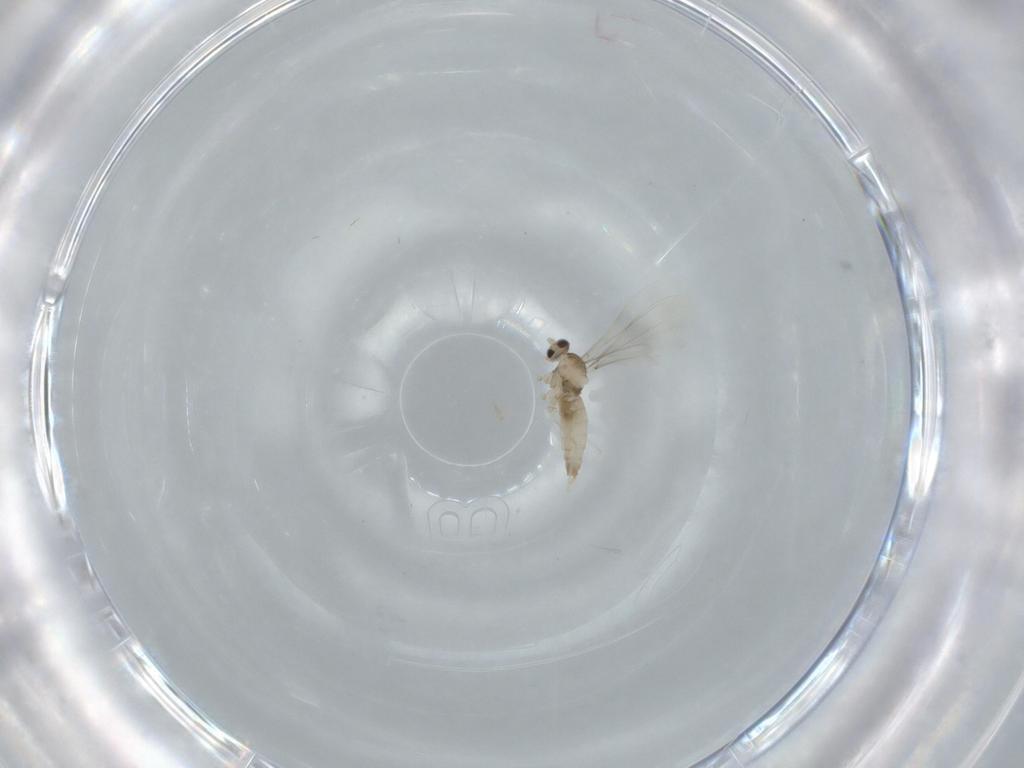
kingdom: Animalia
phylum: Arthropoda
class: Insecta
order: Diptera
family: Cecidomyiidae
